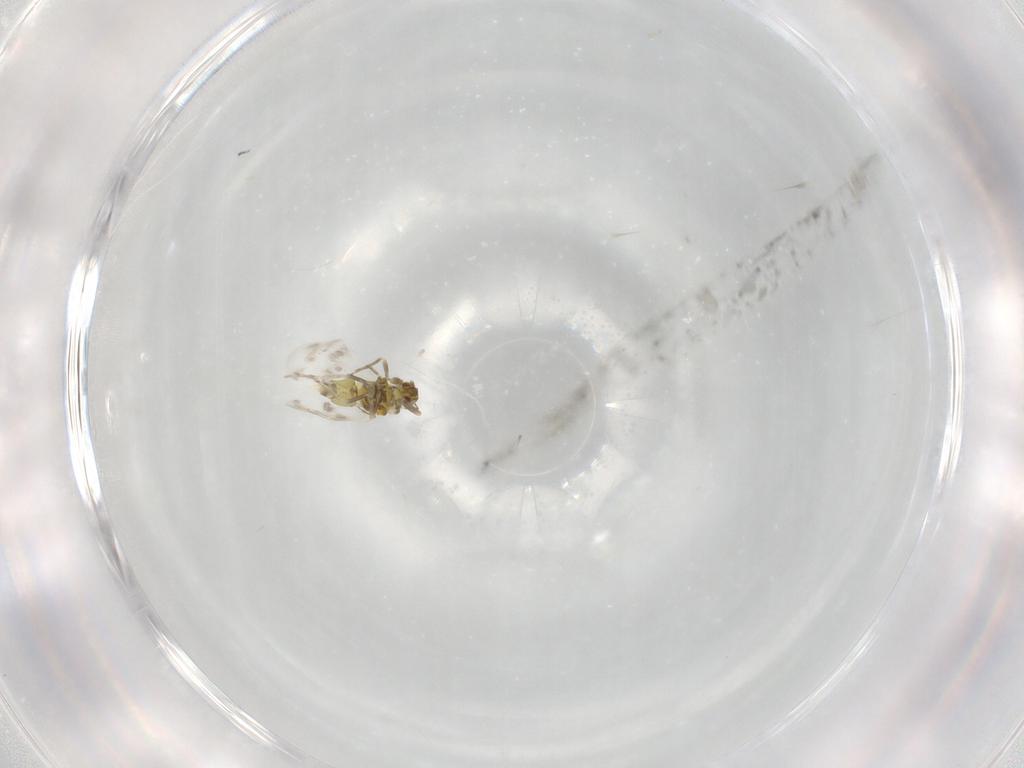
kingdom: Animalia
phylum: Arthropoda
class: Insecta
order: Hemiptera
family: Aleyrodidae
